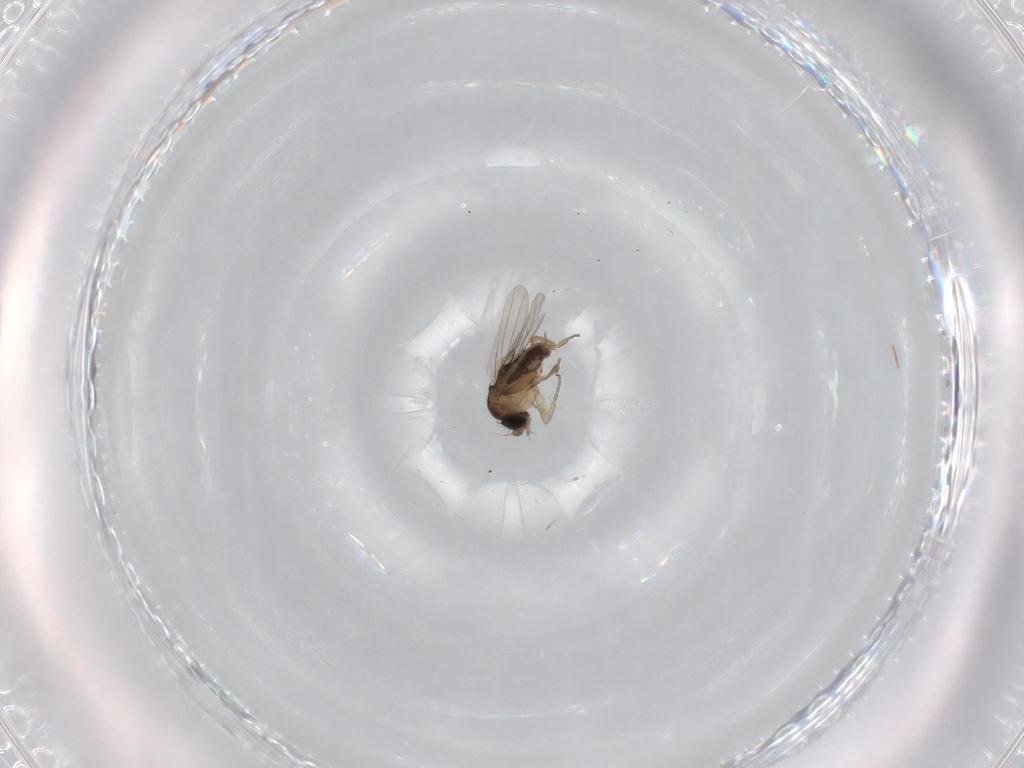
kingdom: Animalia
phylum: Arthropoda
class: Insecta
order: Diptera
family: Phoridae
